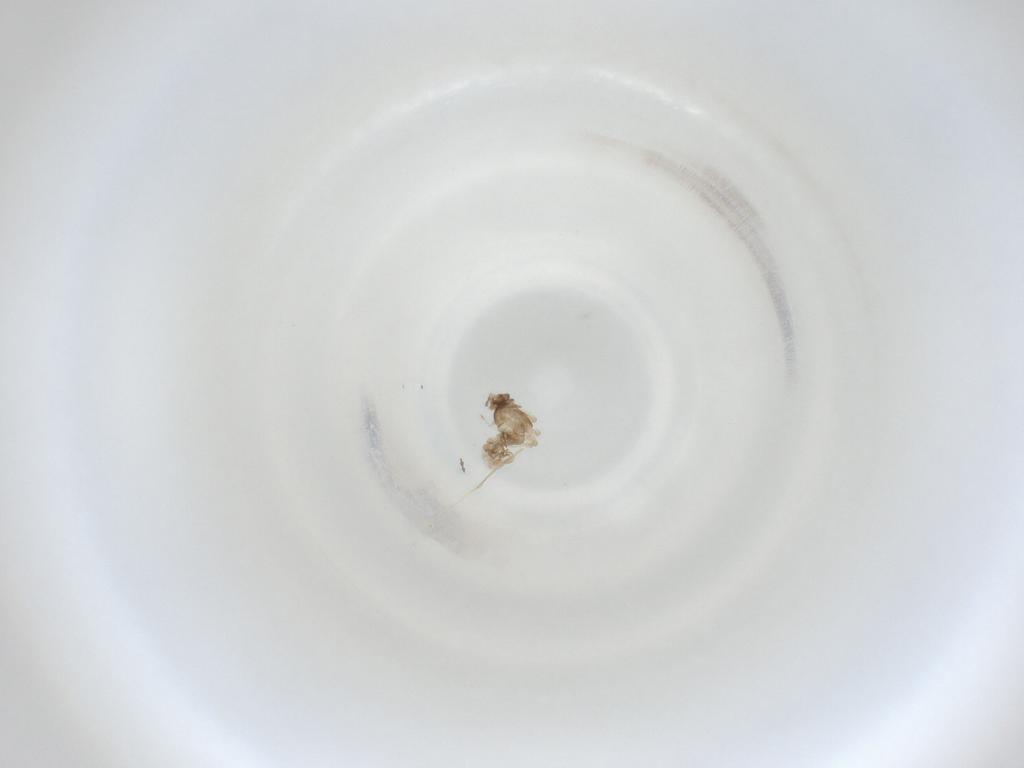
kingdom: Animalia
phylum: Arthropoda
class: Insecta
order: Diptera
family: Cecidomyiidae
